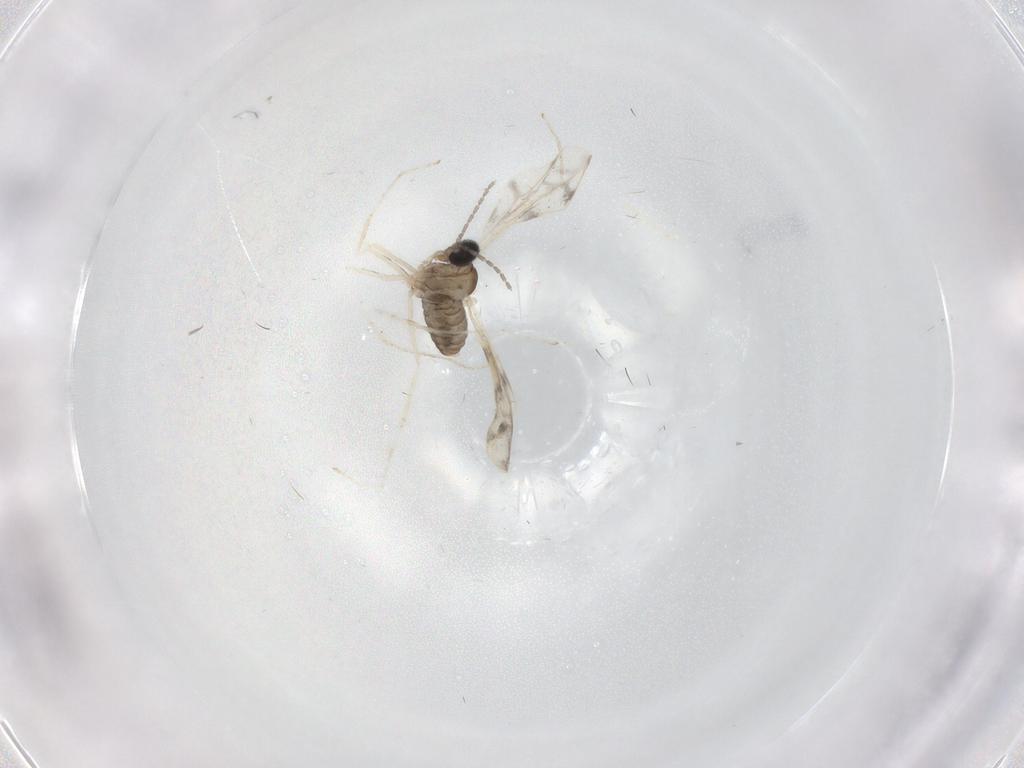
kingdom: Animalia
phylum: Arthropoda
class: Insecta
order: Diptera
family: Cecidomyiidae
